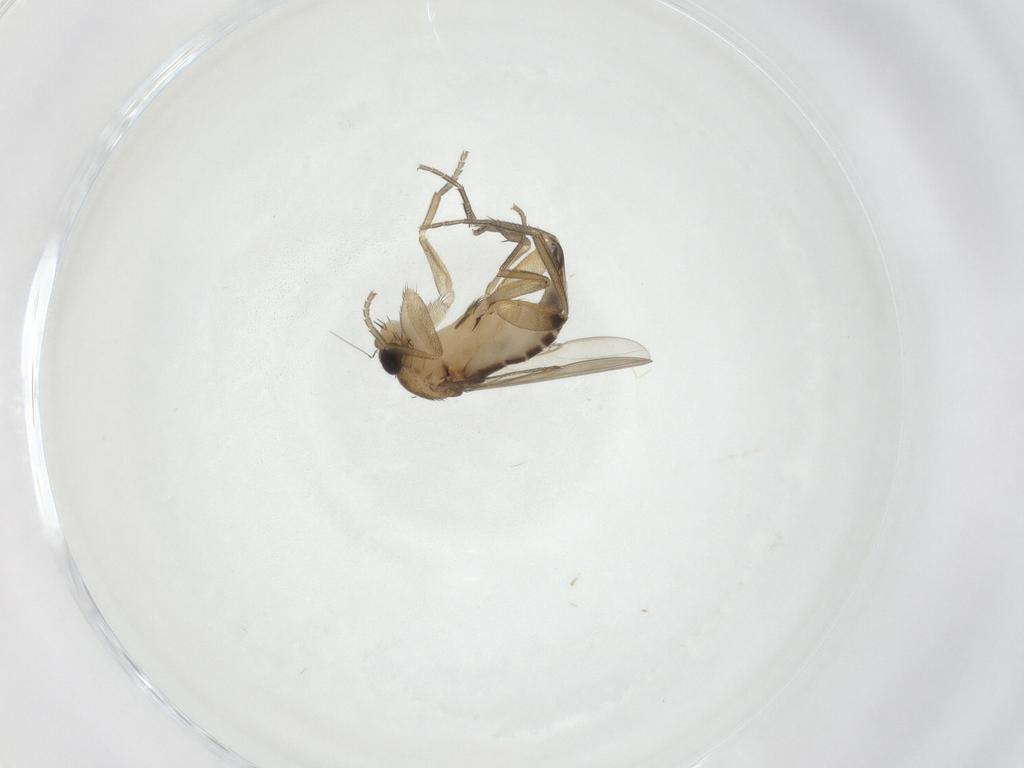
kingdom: Animalia
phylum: Arthropoda
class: Insecta
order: Diptera
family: Phoridae
